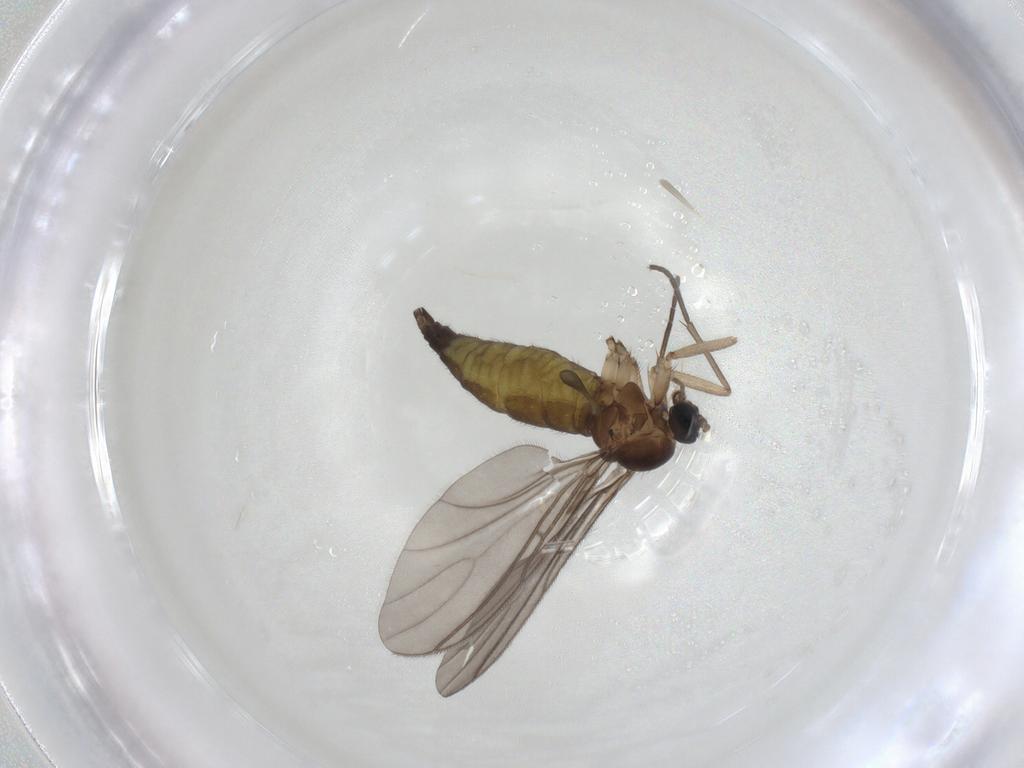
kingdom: Animalia
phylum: Arthropoda
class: Insecta
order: Diptera
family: Sciaridae
